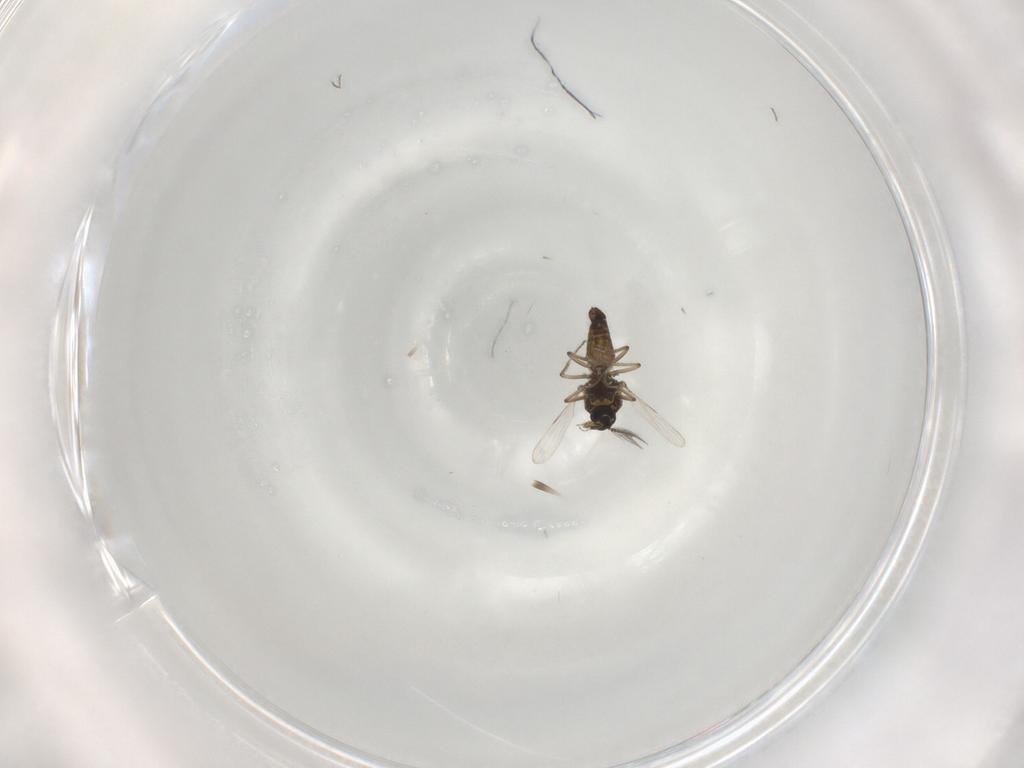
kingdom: Animalia
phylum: Arthropoda
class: Insecta
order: Diptera
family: Ceratopogonidae
